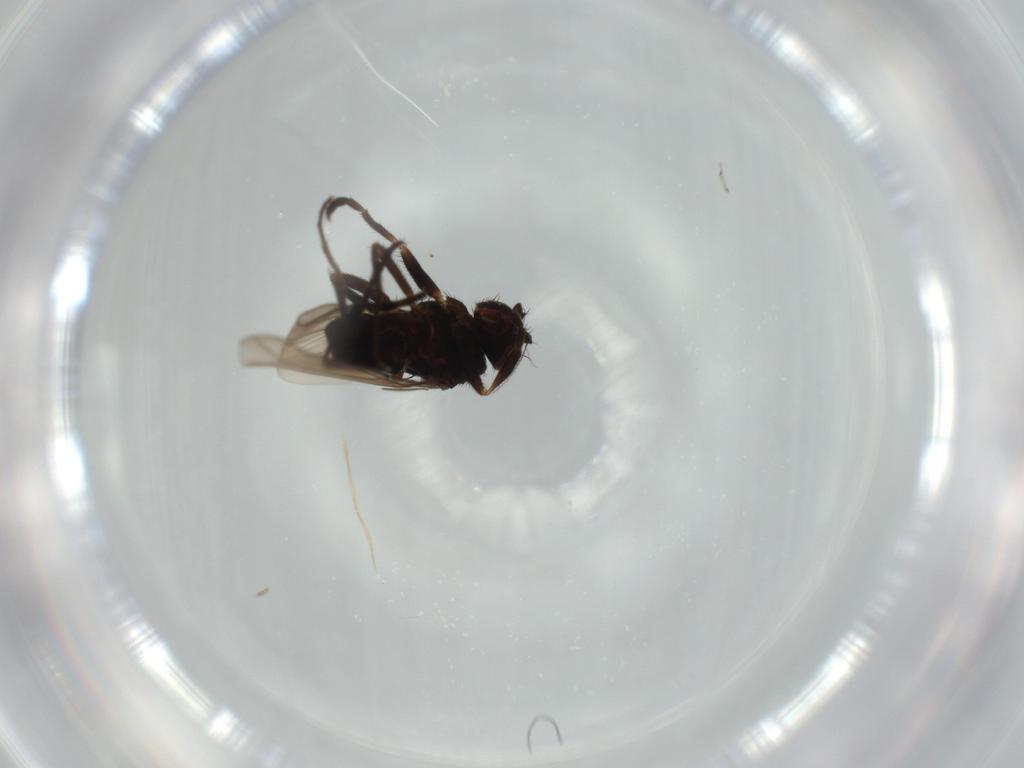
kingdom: Animalia
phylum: Arthropoda
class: Insecta
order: Diptera
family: Sphaeroceridae
